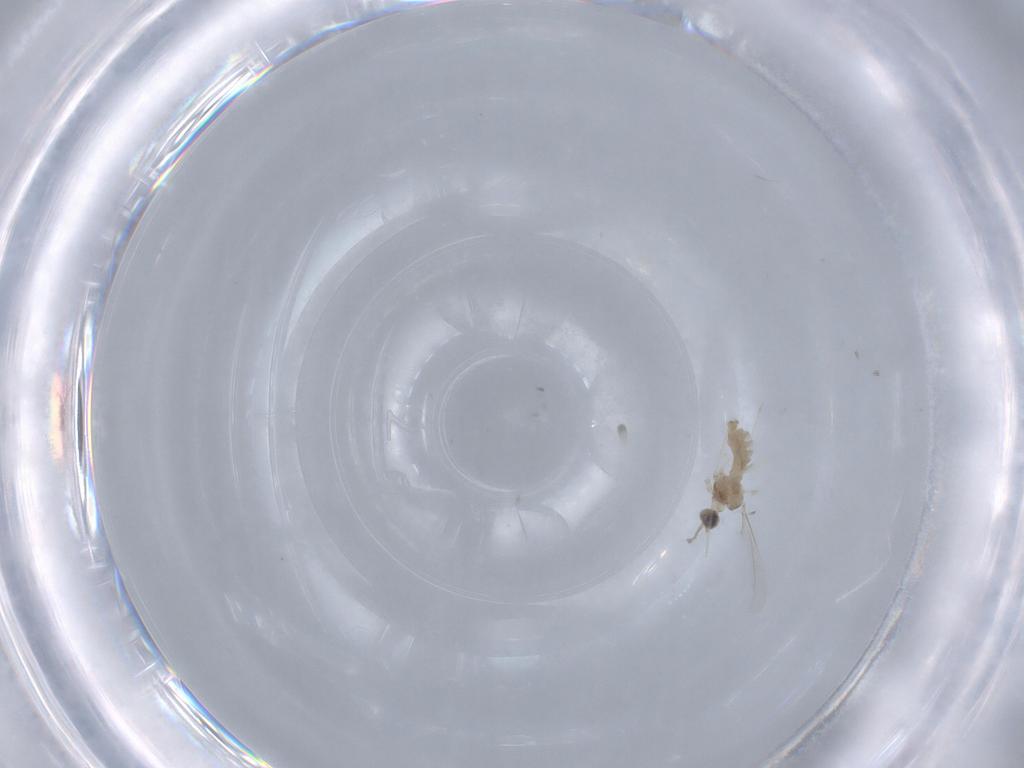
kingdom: Animalia
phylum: Arthropoda
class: Insecta
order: Diptera
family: Cecidomyiidae
